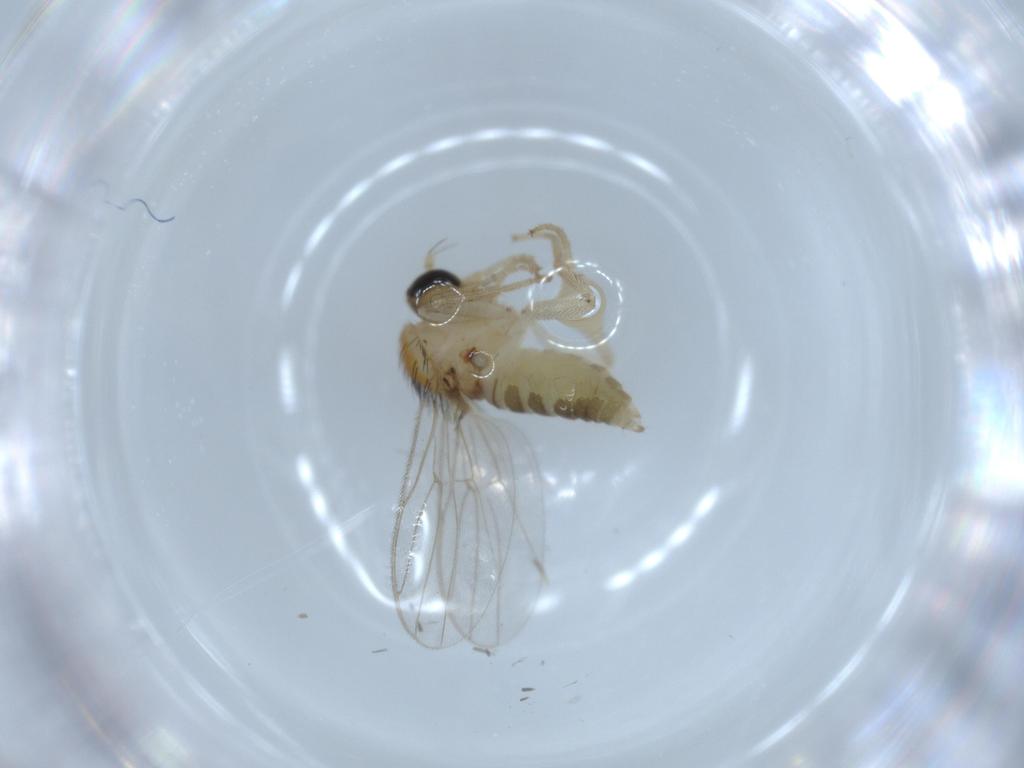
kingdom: Animalia
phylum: Arthropoda
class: Insecta
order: Diptera
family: Hybotidae
